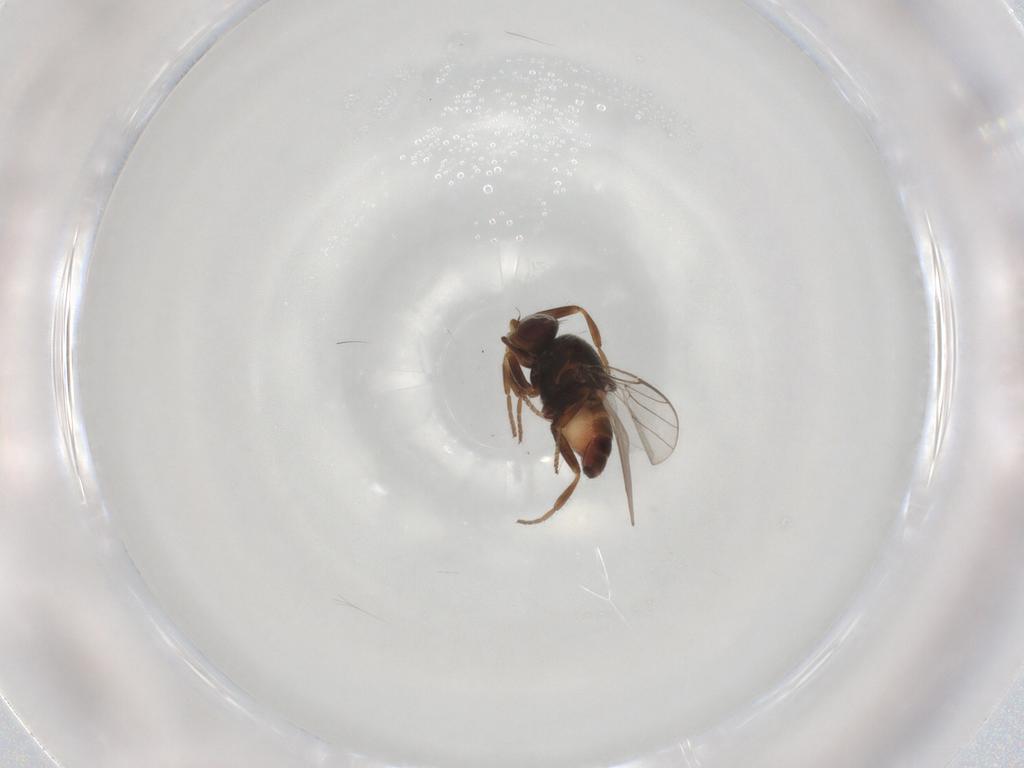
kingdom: Animalia
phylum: Arthropoda
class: Insecta
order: Diptera
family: Chloropidae
